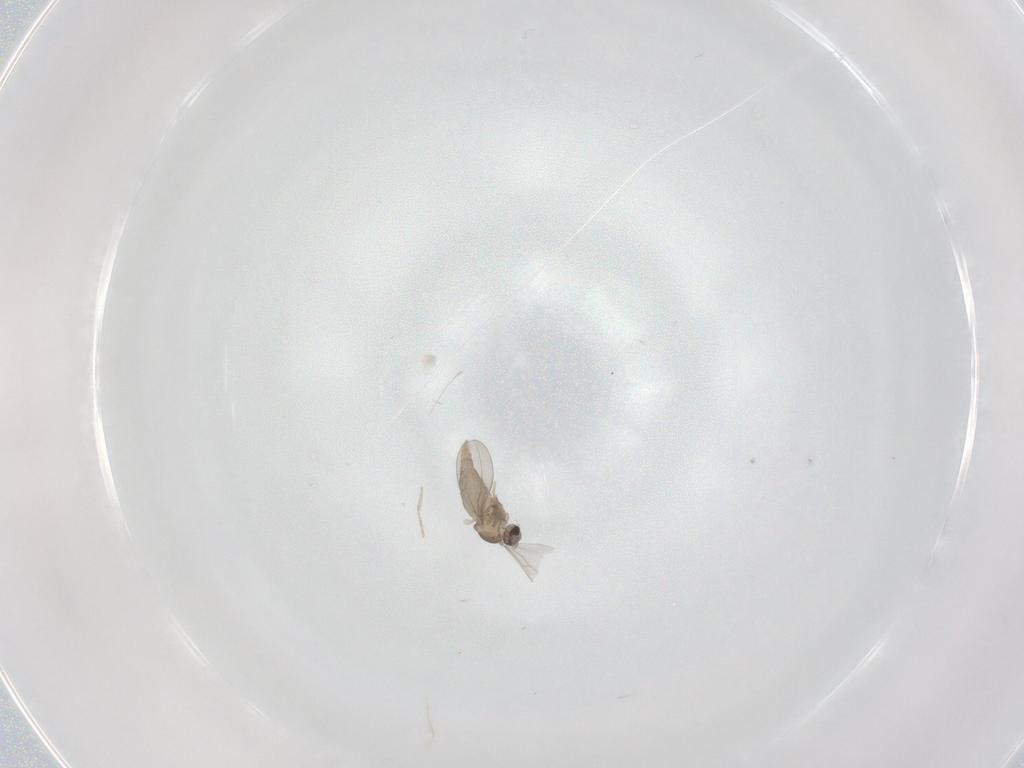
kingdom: Animalia
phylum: Arthropoda
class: Insecta
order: Diptera
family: Cecidomyiidae
